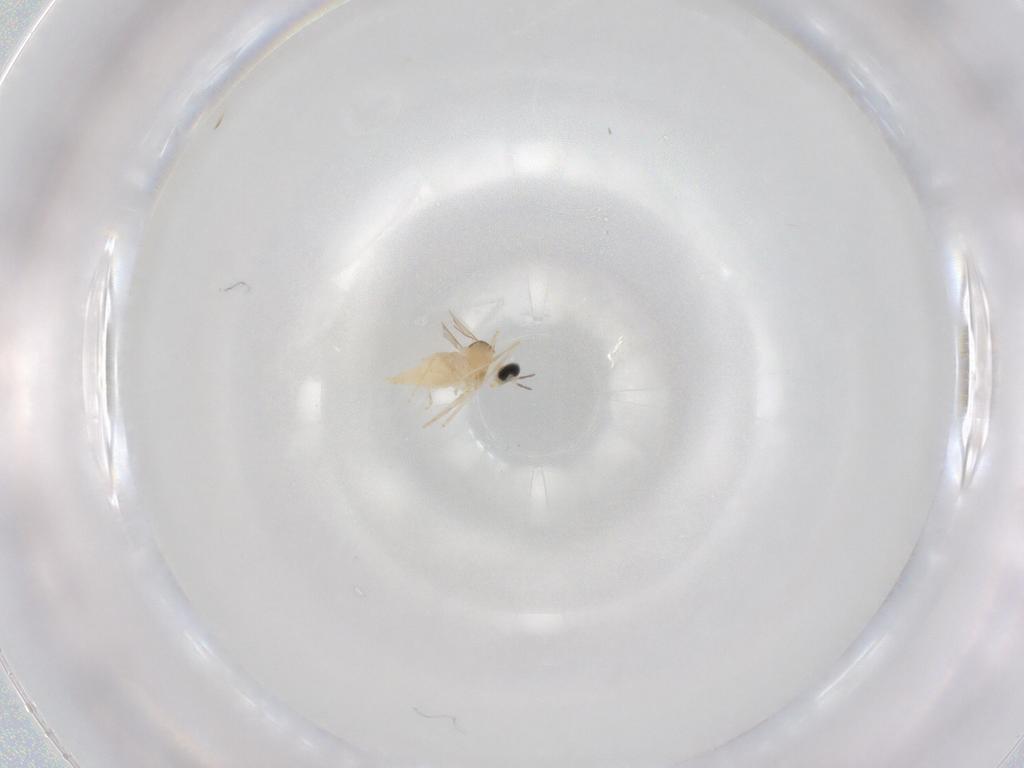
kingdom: Animalia
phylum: Arthropoda
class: Insecta
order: Diptera
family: Cecidomyiidae
